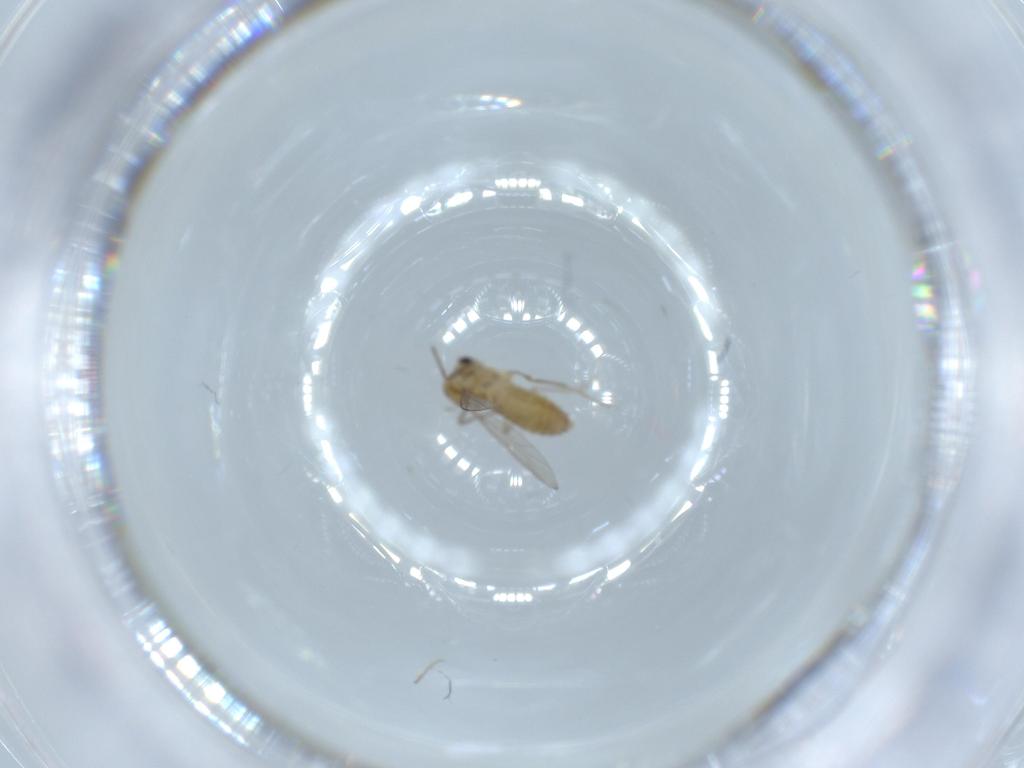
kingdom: Animalia
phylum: Arthropoda
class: Insecta
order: Diptera
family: Chironomidae
